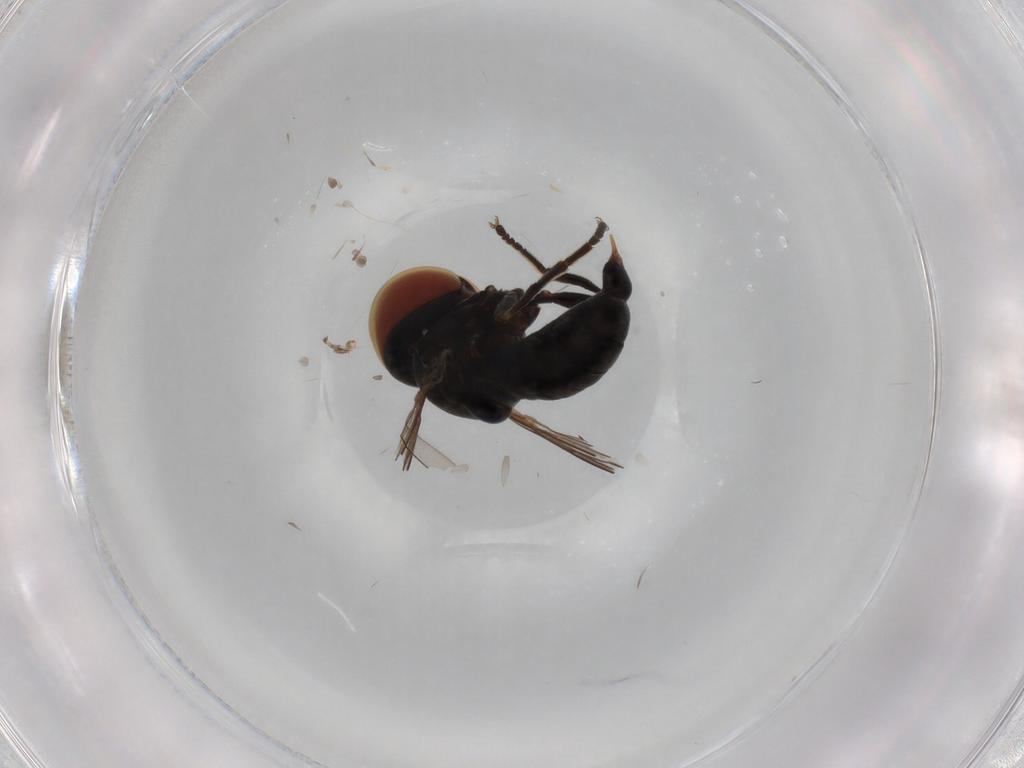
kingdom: Animalia
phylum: Arthropoda
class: Insecta
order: Diptera
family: Pipunculidae
